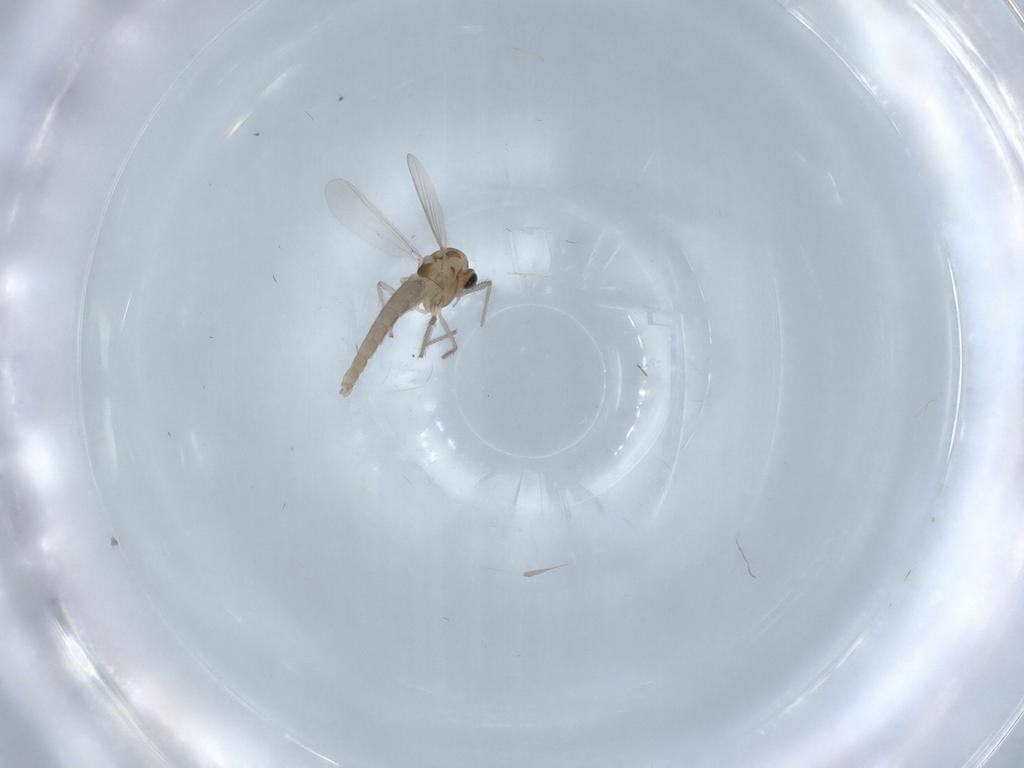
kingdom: Animalia
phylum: Arthropoda
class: Insecta
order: Diptera
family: Chironomidae
